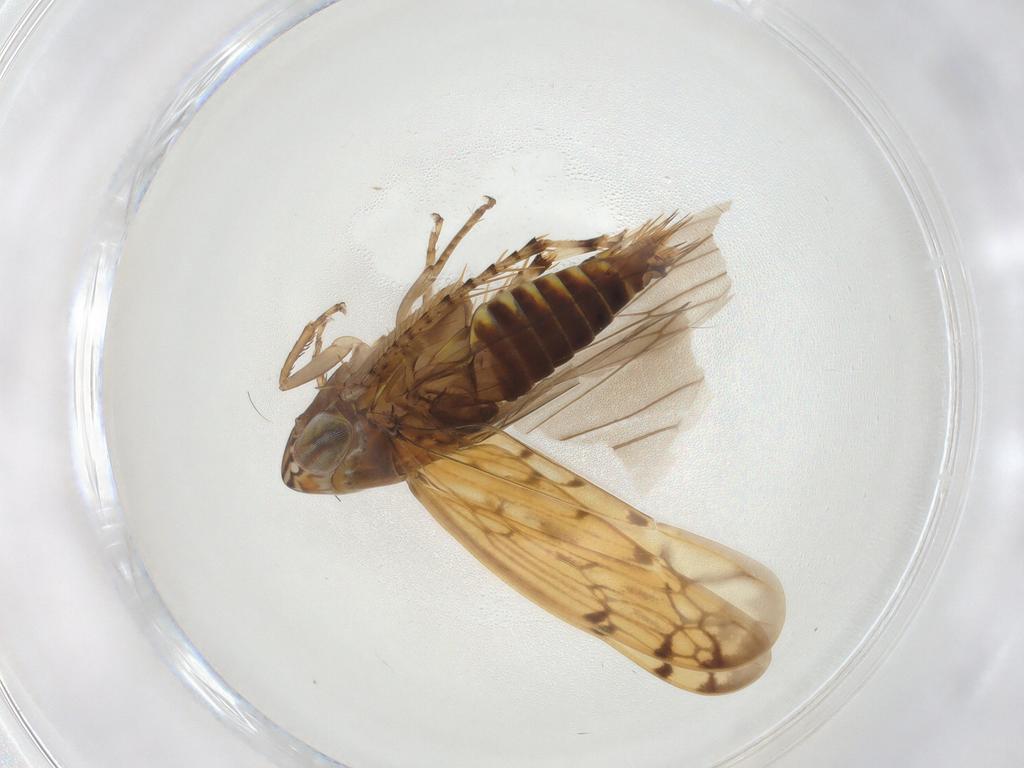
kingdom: Animalia
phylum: Arthropoda
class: Insecta
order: Hemiptera
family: Cicadellidae
